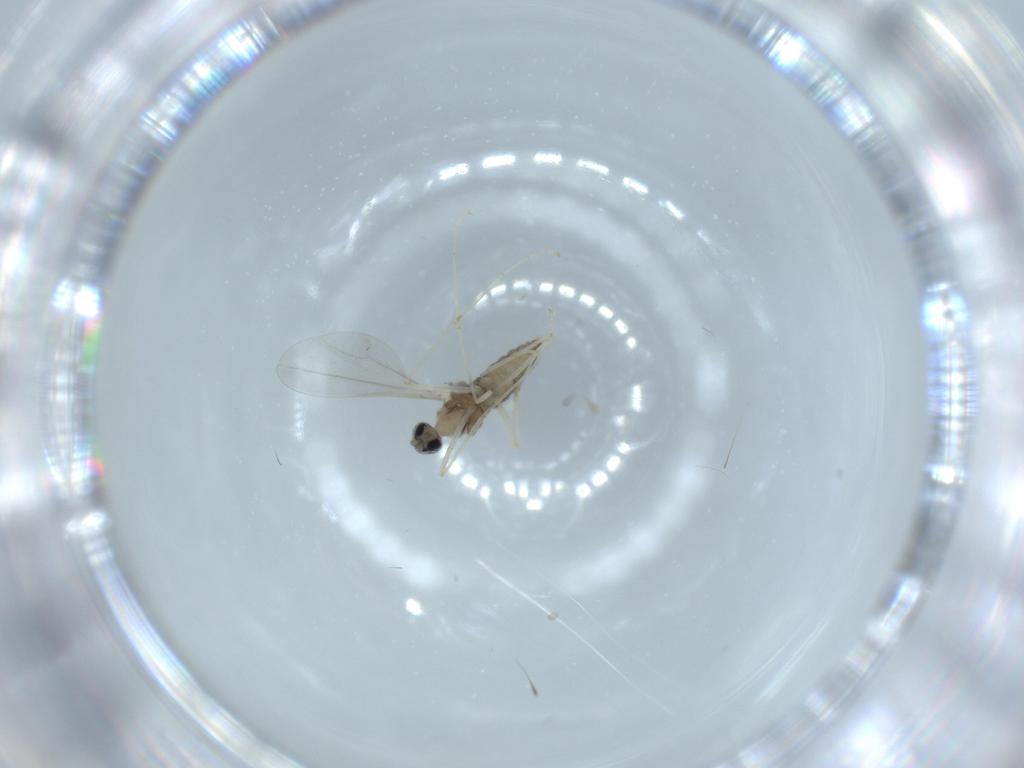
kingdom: Animalia
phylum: Arthropoda
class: Insecta
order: Diptera
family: Cecidomyiidae
